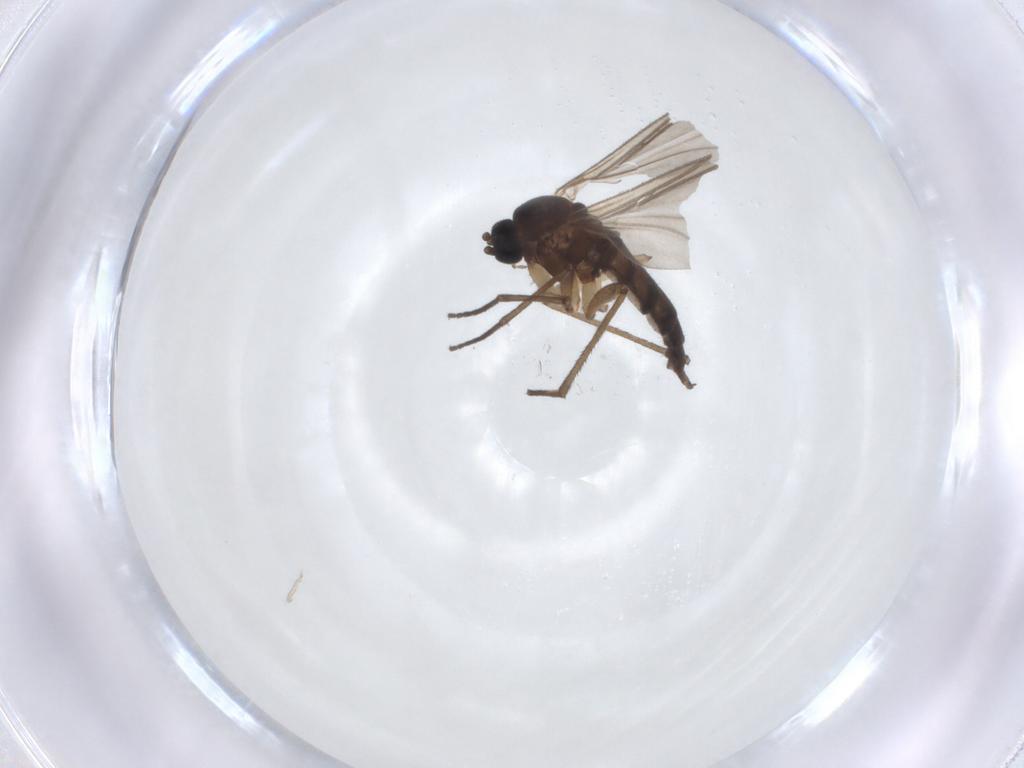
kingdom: Animalia
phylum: Arthropoda
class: Insecta
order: Diptera
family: Sciaridae
